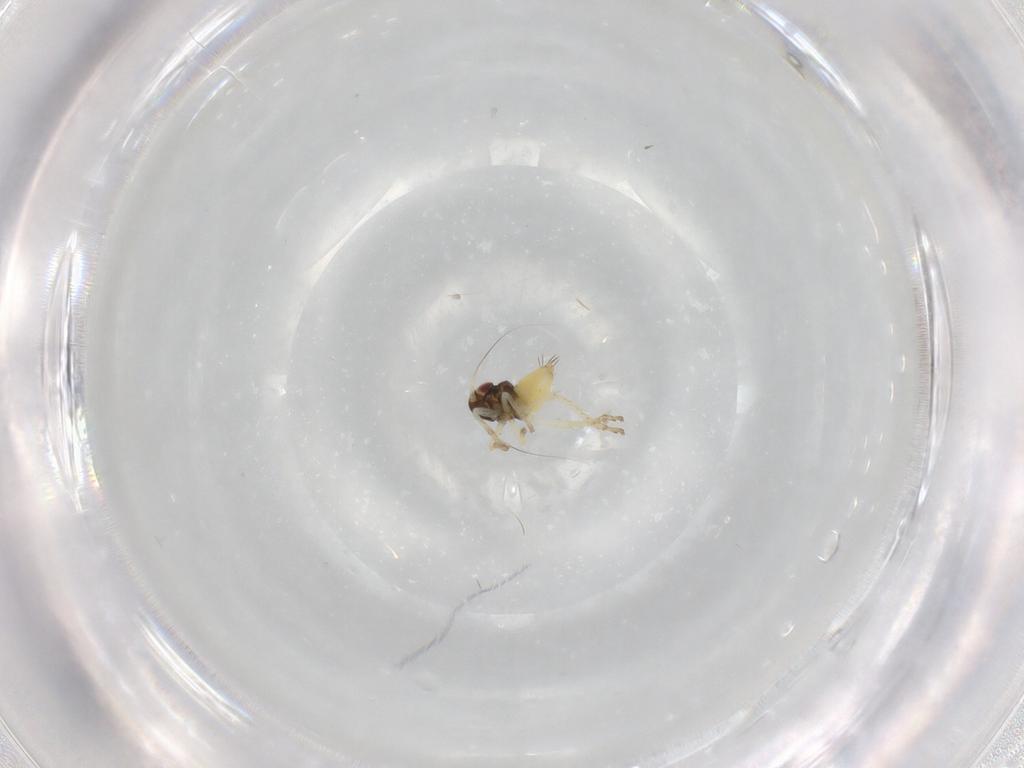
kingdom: Animalia
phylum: Arthropoda
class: Insecta
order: Hemiptera
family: Cicadellidae
